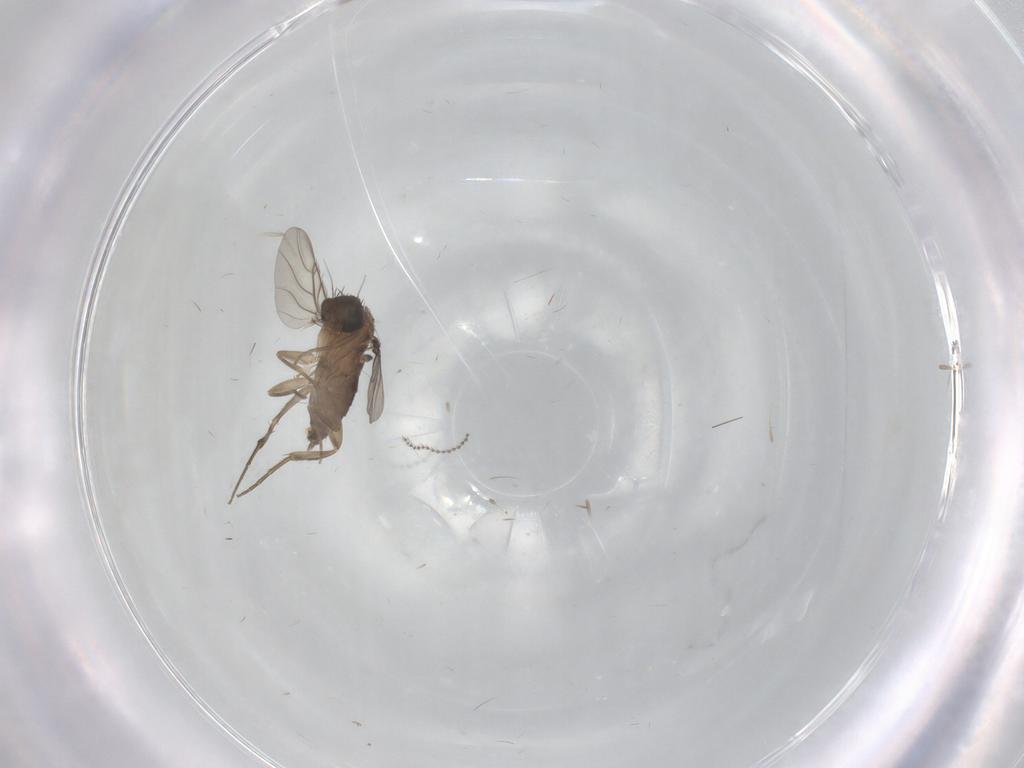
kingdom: Animalia
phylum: Arthropoda
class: Insecta
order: Diptera
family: Phoridae
